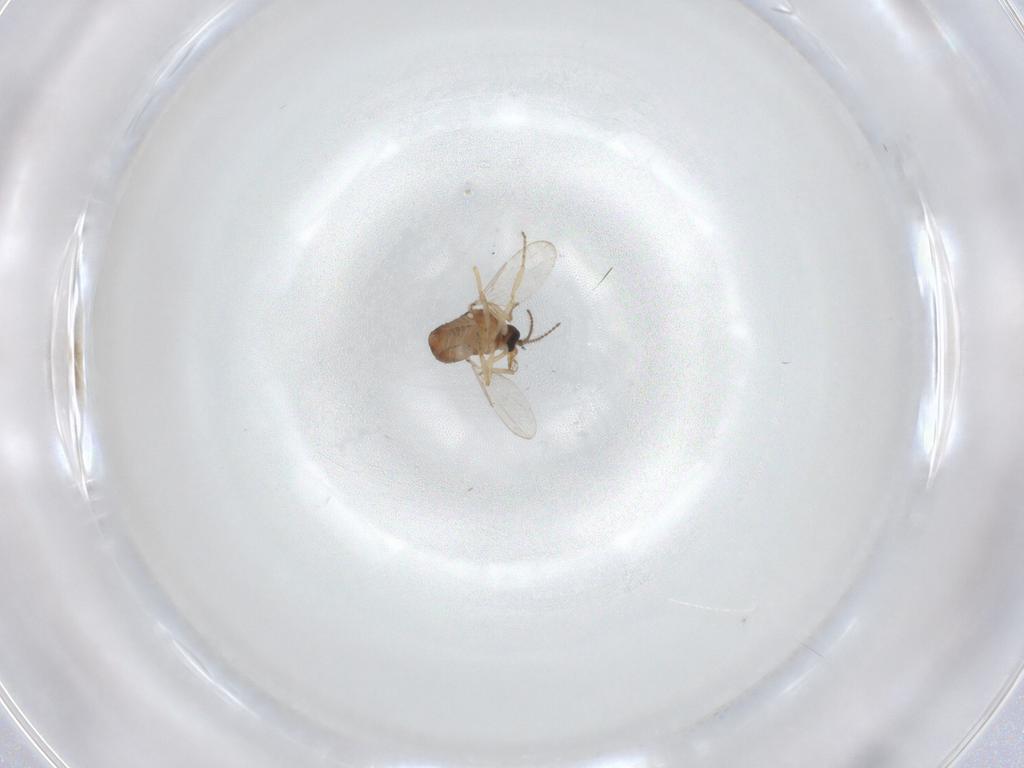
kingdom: Animalia
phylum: Arthropoda
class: Insecta
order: Diptera
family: Ceratopogonidae
